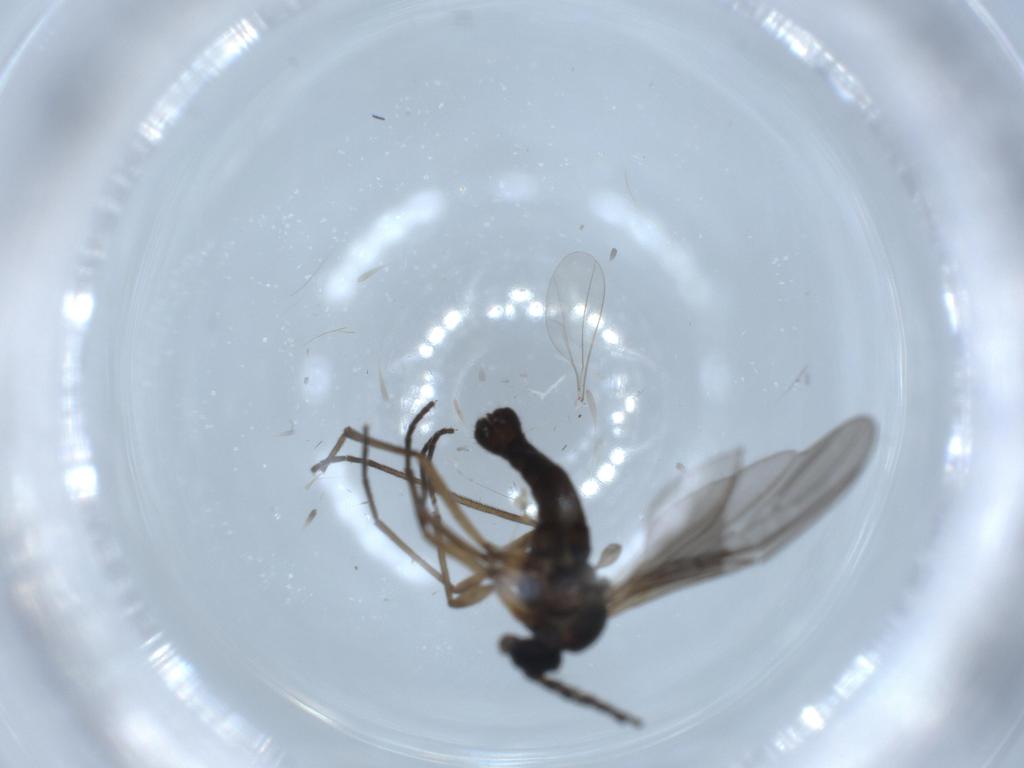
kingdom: Animalia
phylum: Arthropoda
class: Insecta
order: Diptera
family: Sciaridae
